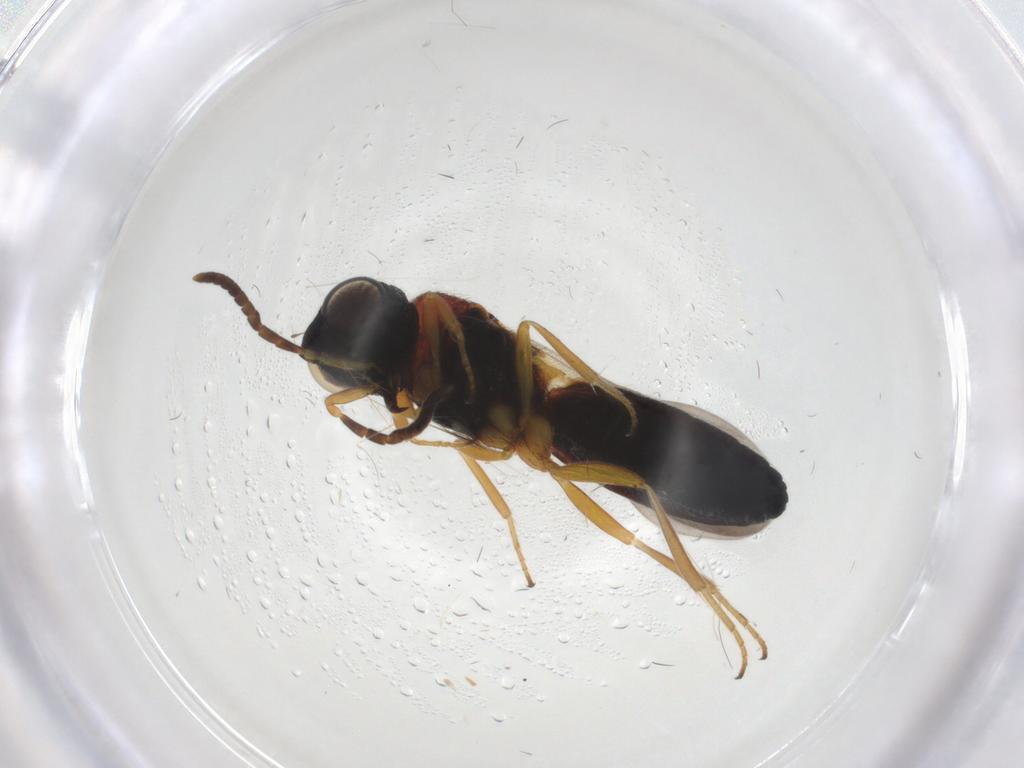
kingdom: Animalia
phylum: Arthropoda
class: Insecta
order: Hymenoptera
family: Scelionidae
